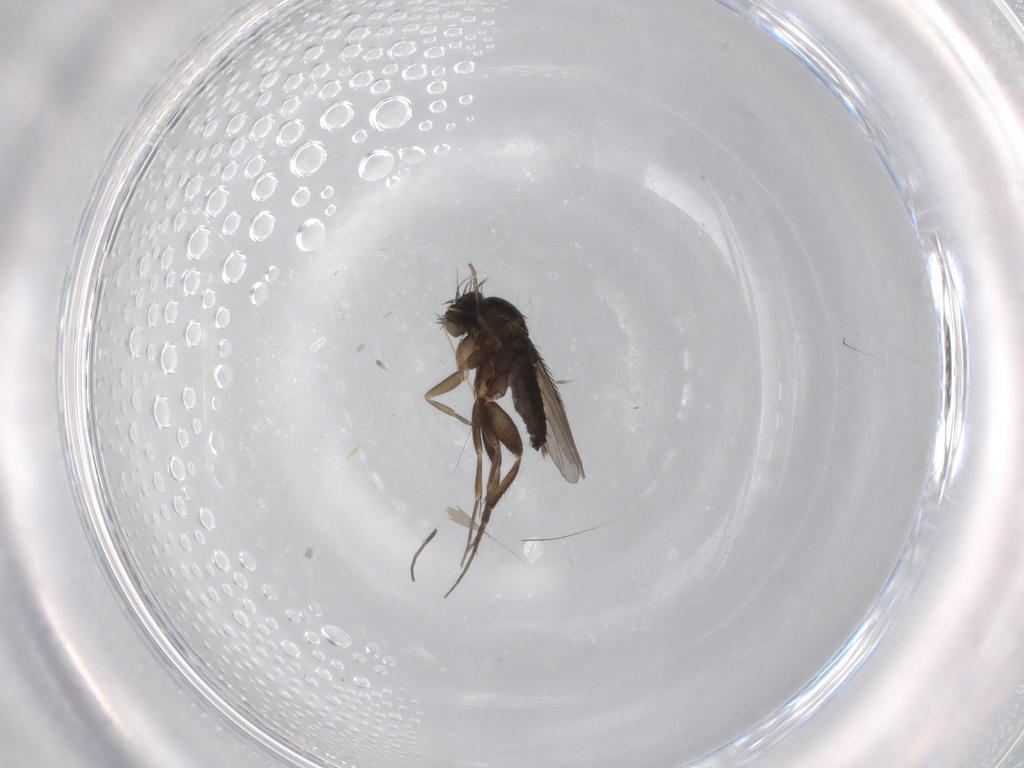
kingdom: Animalia
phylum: Arthropoda
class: Insecta
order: Diptera
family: Phoridae
